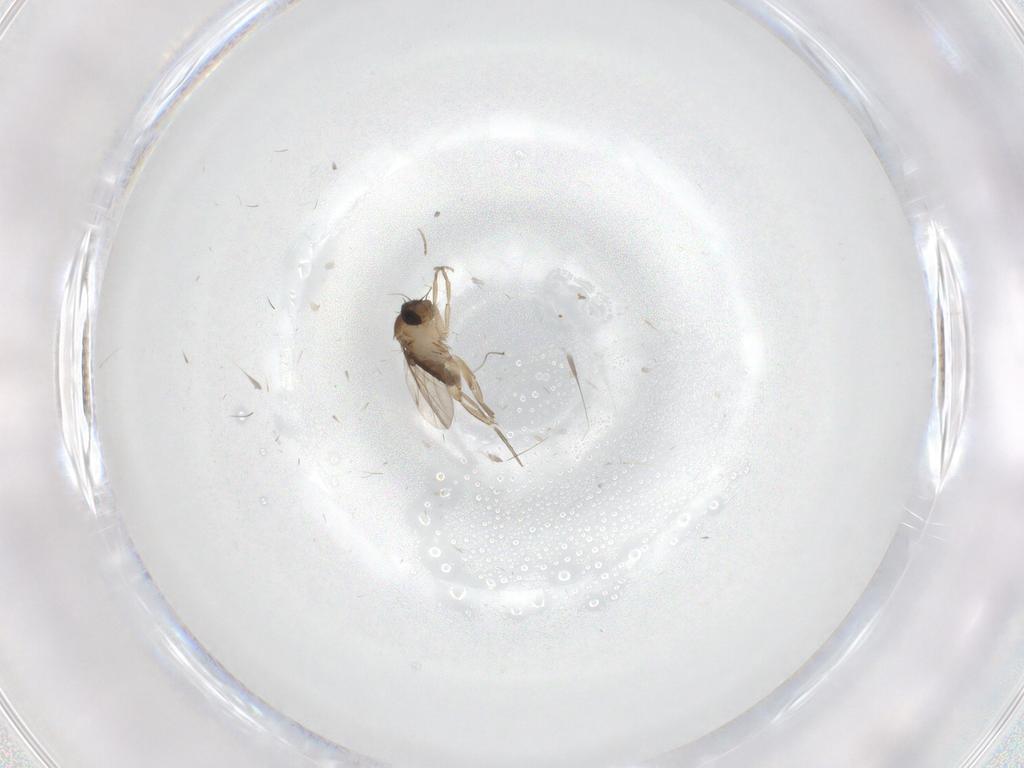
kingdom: Animalia
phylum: Arthropoda
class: Insecta
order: Diptera
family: Phoridae
